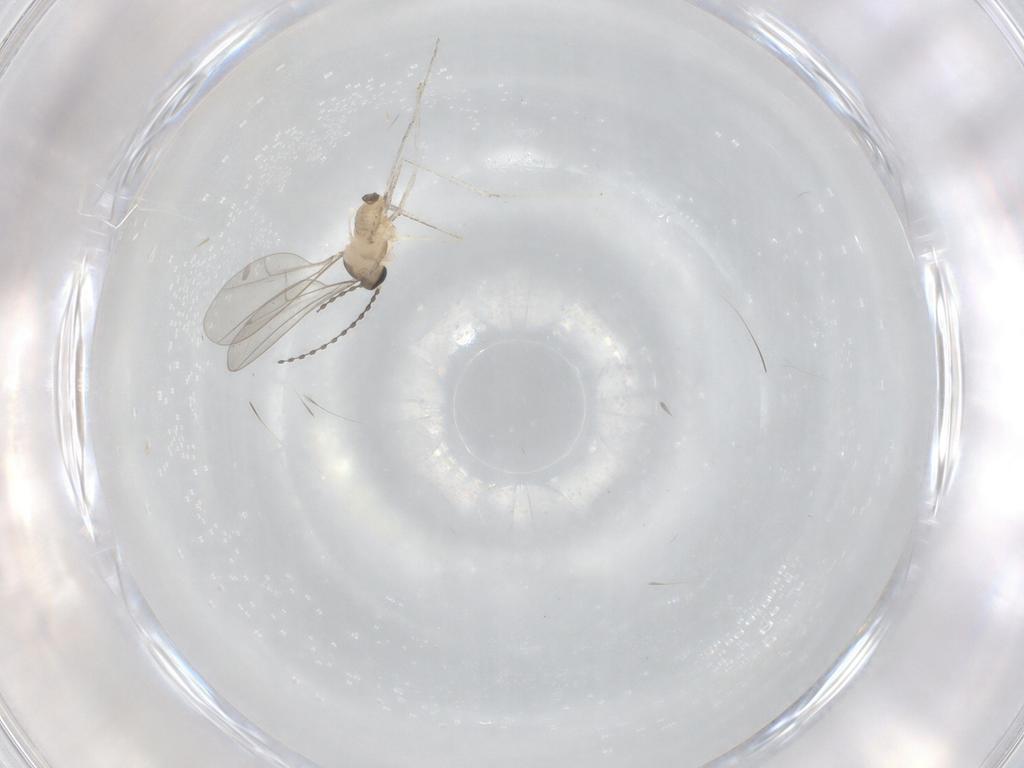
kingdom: Animalia
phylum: Arthropoda
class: Insecta
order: Diptera
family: Cecidomyiidae
